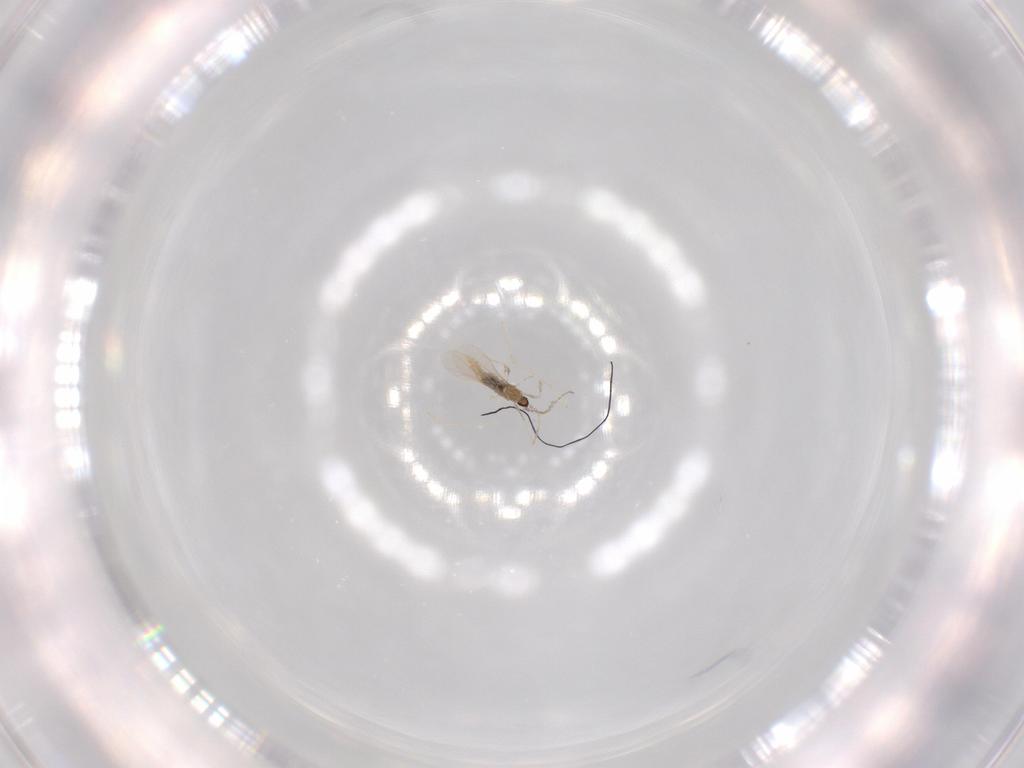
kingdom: Animalia
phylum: Arthropoda
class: Insecta
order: Diptera
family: Cecidomyiidae
